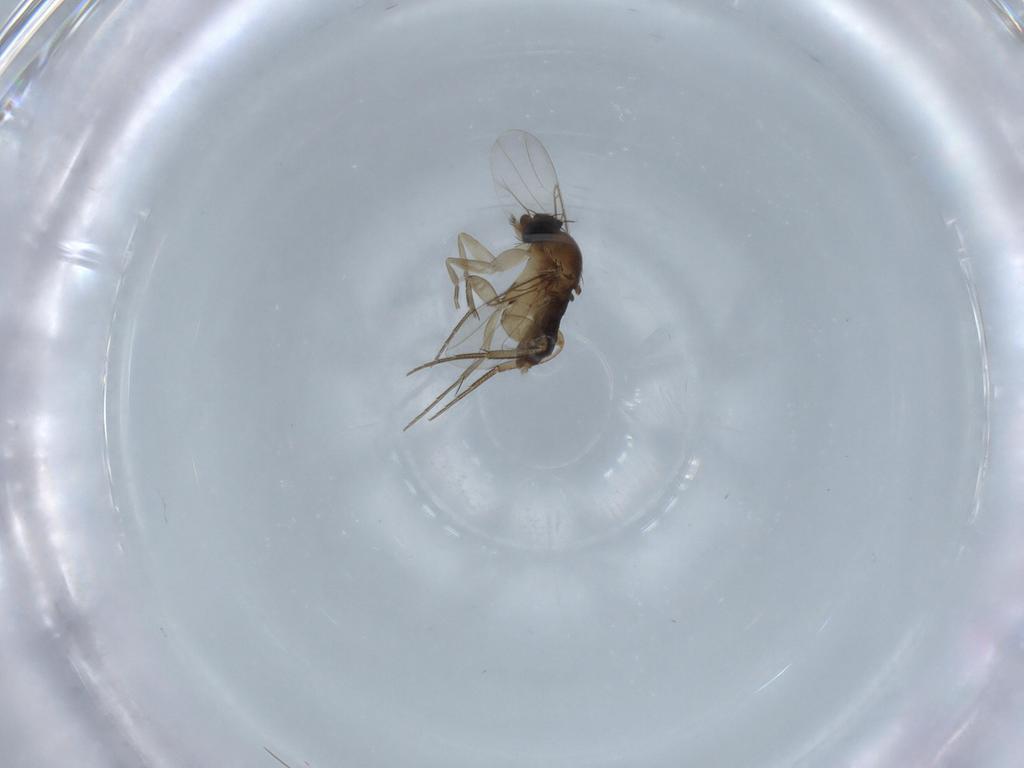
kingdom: Animalia
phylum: Arthropoda
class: Insecta
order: Diptera
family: Phoridae
